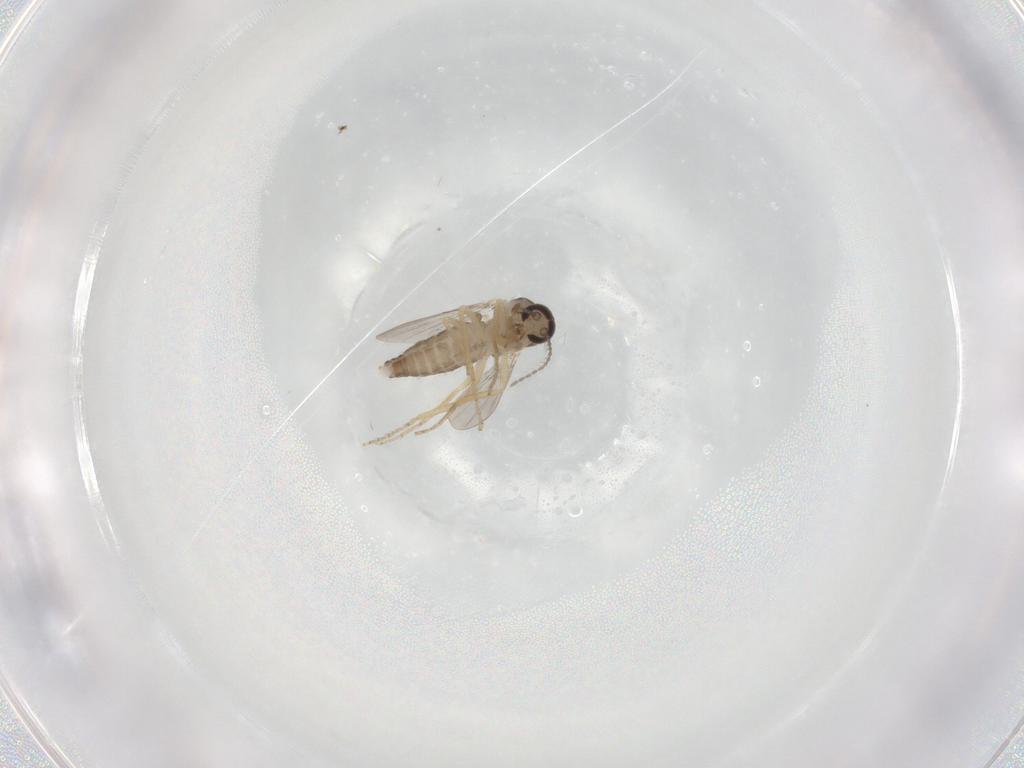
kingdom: Animalia
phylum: Arthropoda
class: Insecta
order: Diptera
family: Ceratopogonidae
